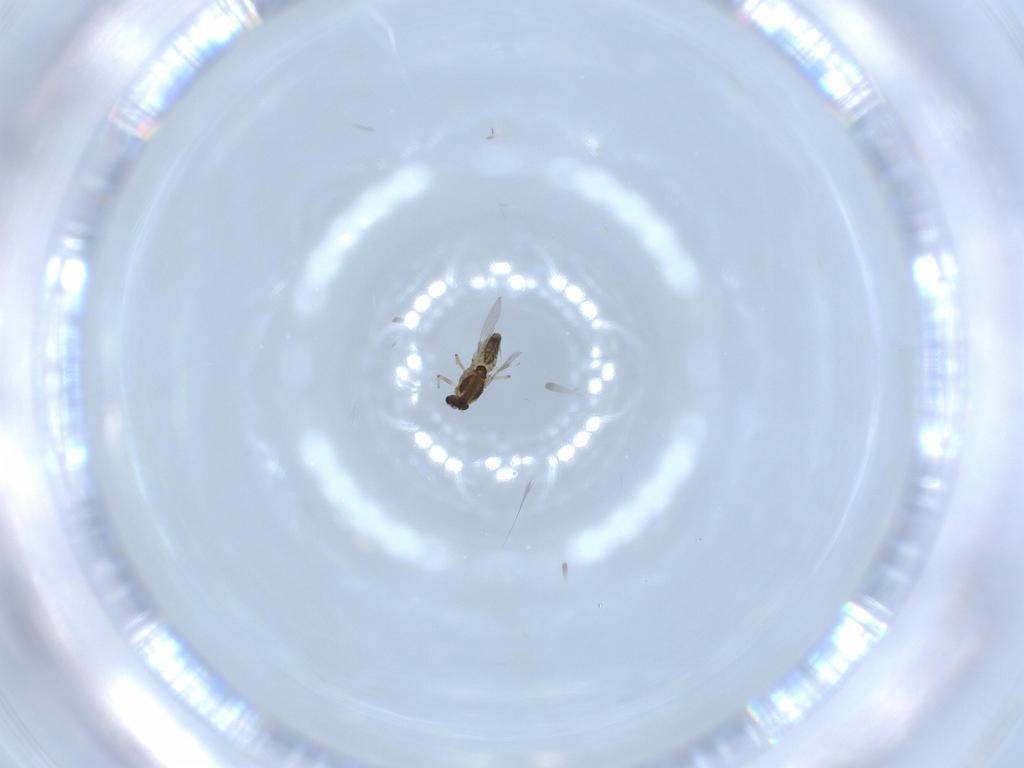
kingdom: Animalia
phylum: Arthropoda
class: Insecta
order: Diptera
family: Chironomidae
